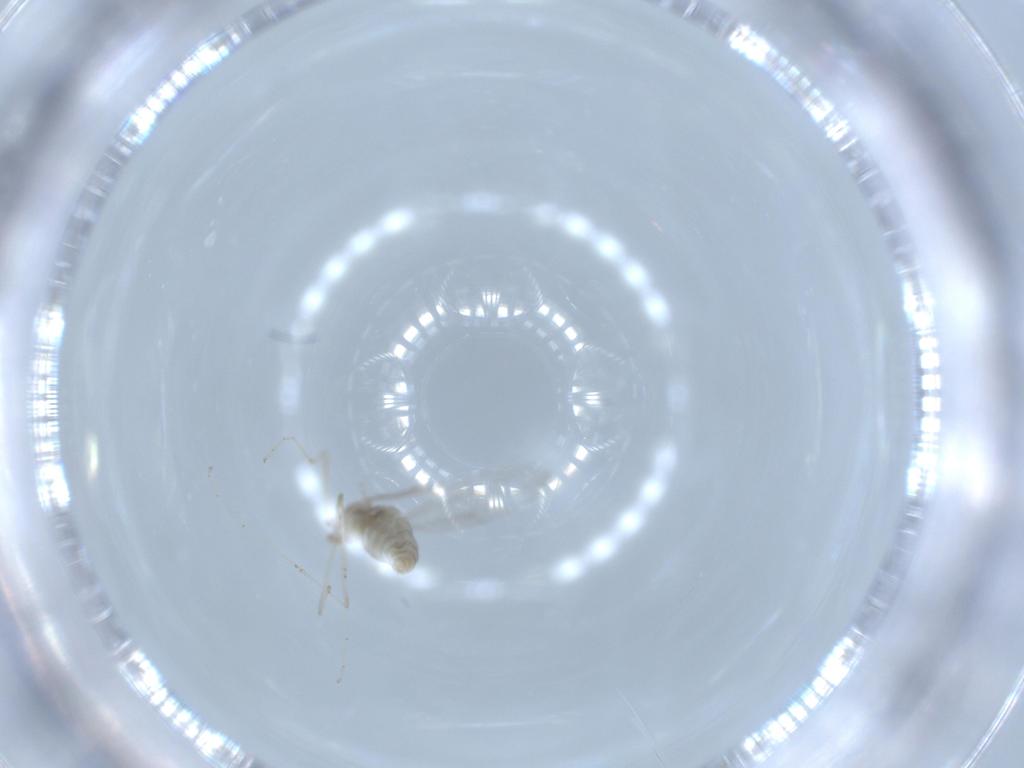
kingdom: Animalia
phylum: Arthropoda
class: Insecta
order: Diptera
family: Cecidomyiidae
